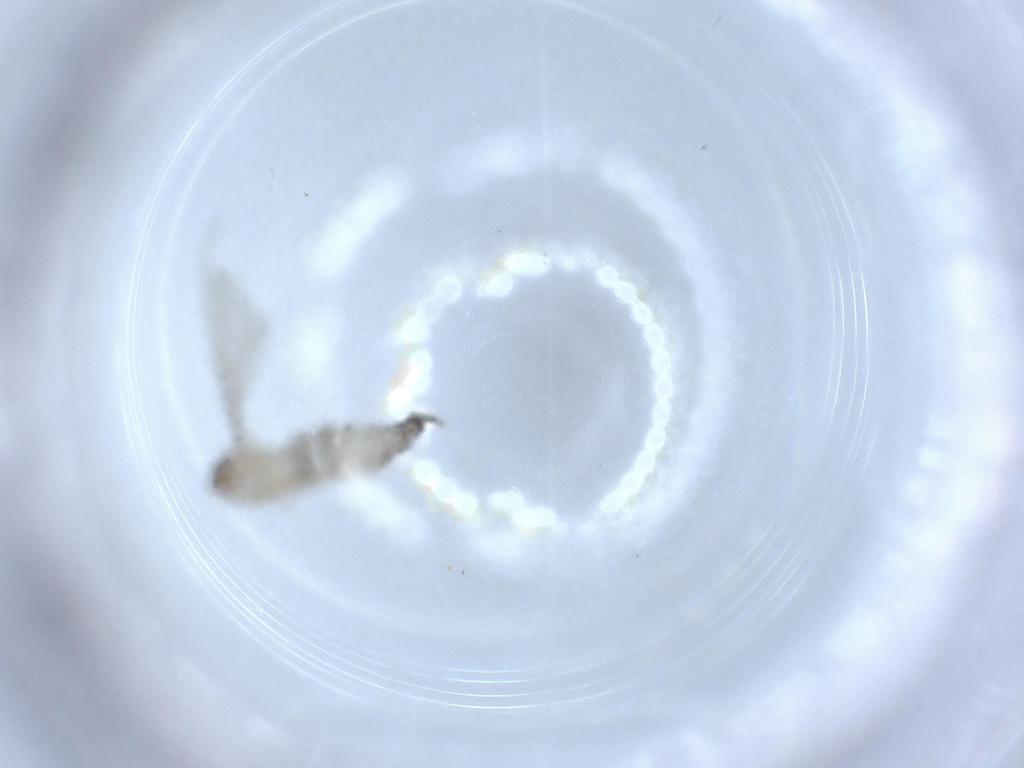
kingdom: Animalia
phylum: Arthropoda
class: Insecta
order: Diptera
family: Cecidomyiidae
